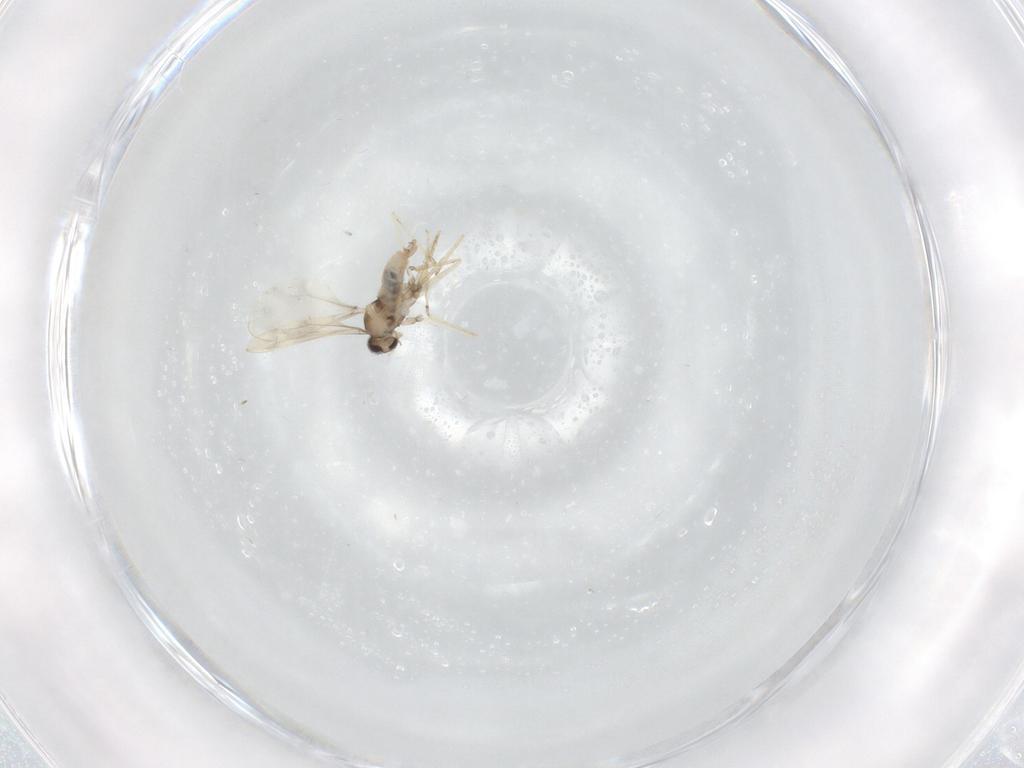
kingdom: Animalia
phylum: Arthropoda
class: Insecta
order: Diptera
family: Cecidomyiidae
